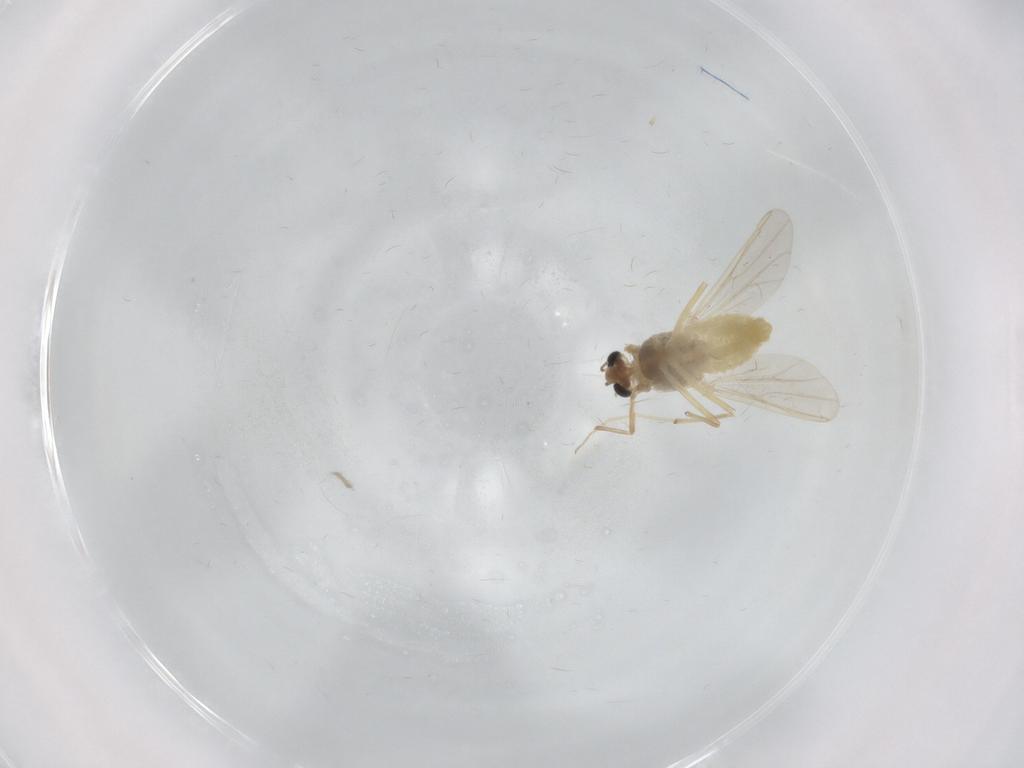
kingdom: Animalia
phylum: Arthropoda
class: Insecta
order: Diptera
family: Chironomidae
